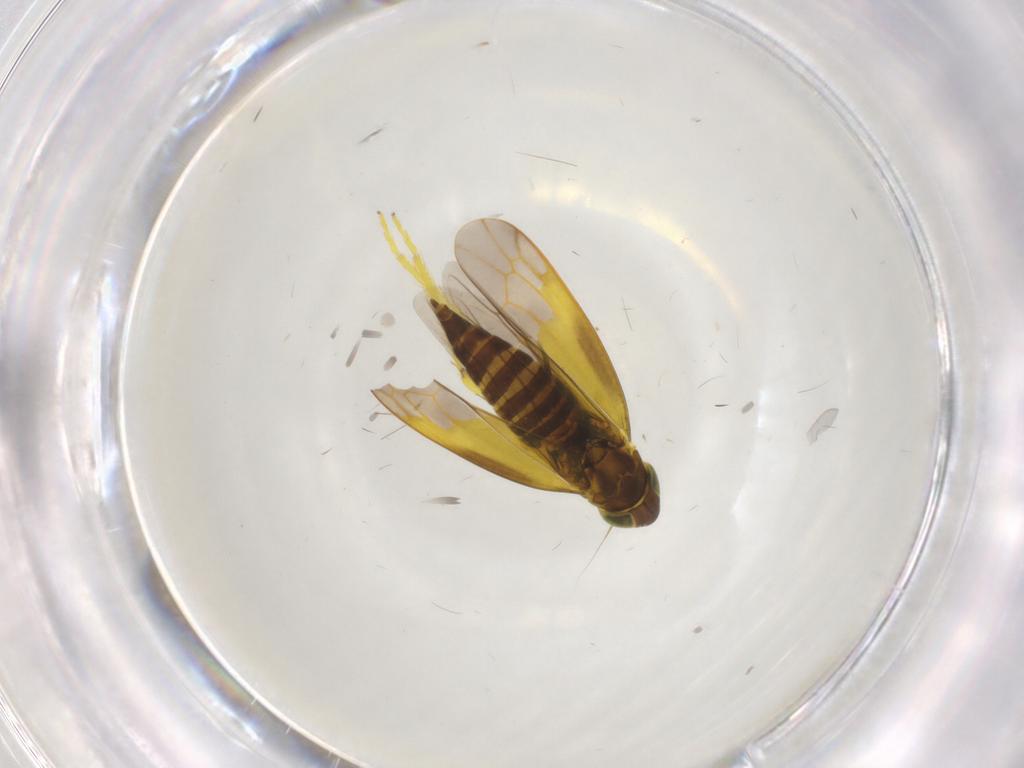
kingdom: Animalia
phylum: Arthropoda
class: Insecta
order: Hemiptera
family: Cicadellidae
